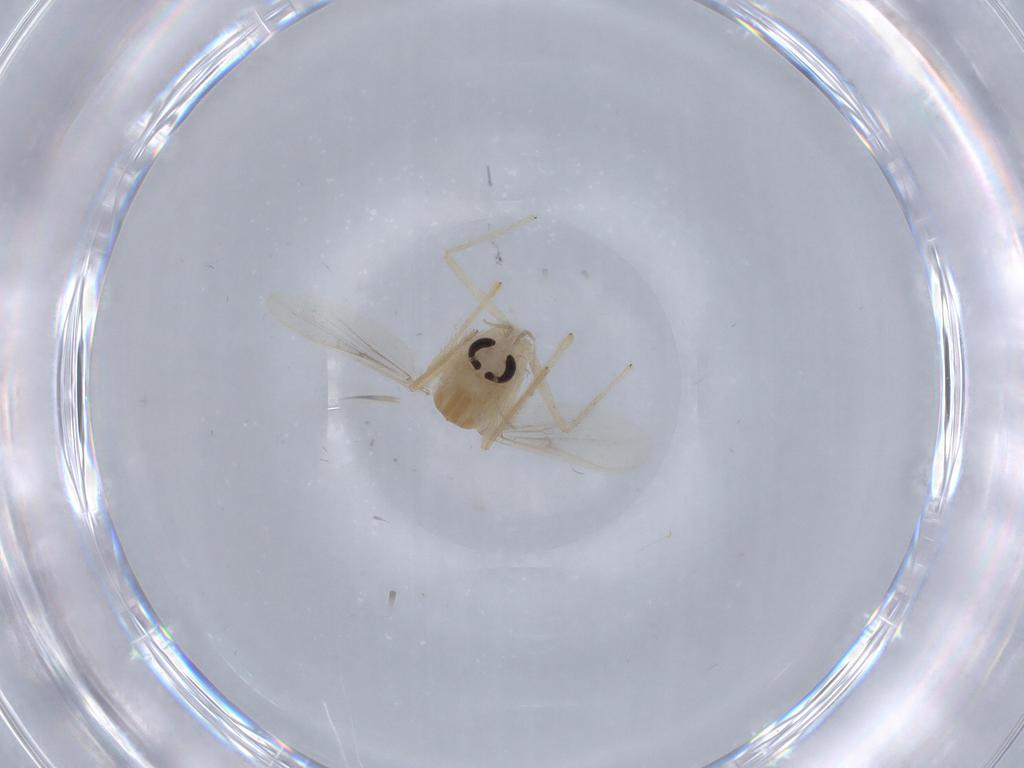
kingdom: Animalia
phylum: Arthropoda
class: Insecta
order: Diptera
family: Chironomidae
